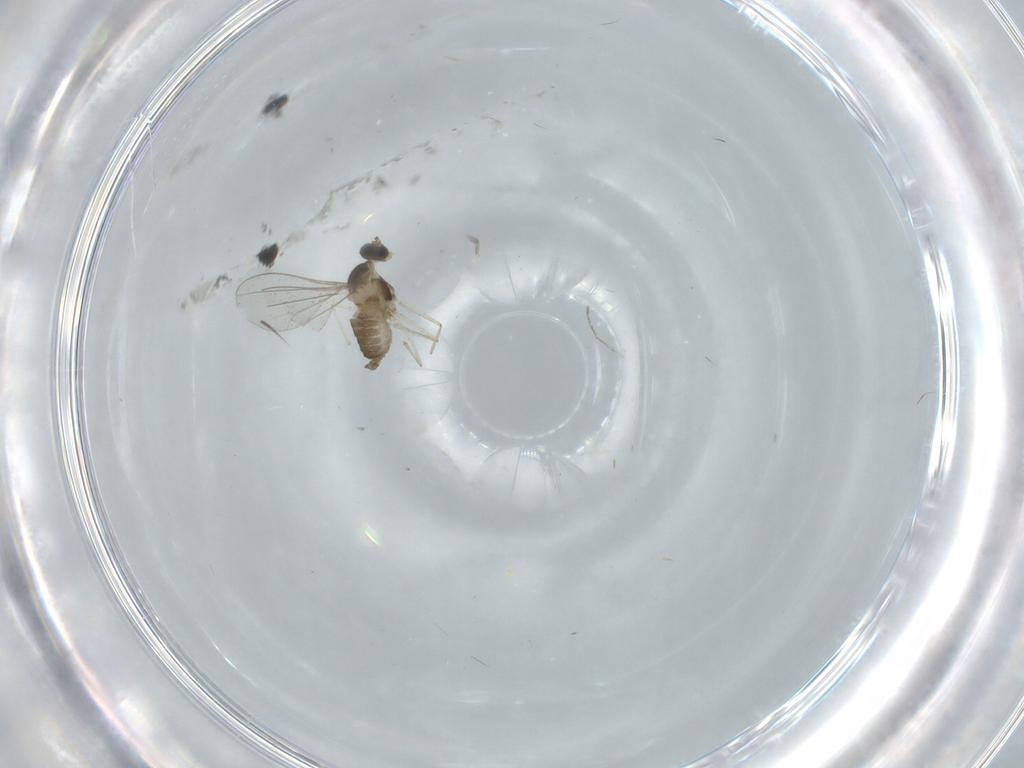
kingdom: Animalia
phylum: Arthropoda
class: Insecta
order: Diptera
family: Cecidomyiidae
